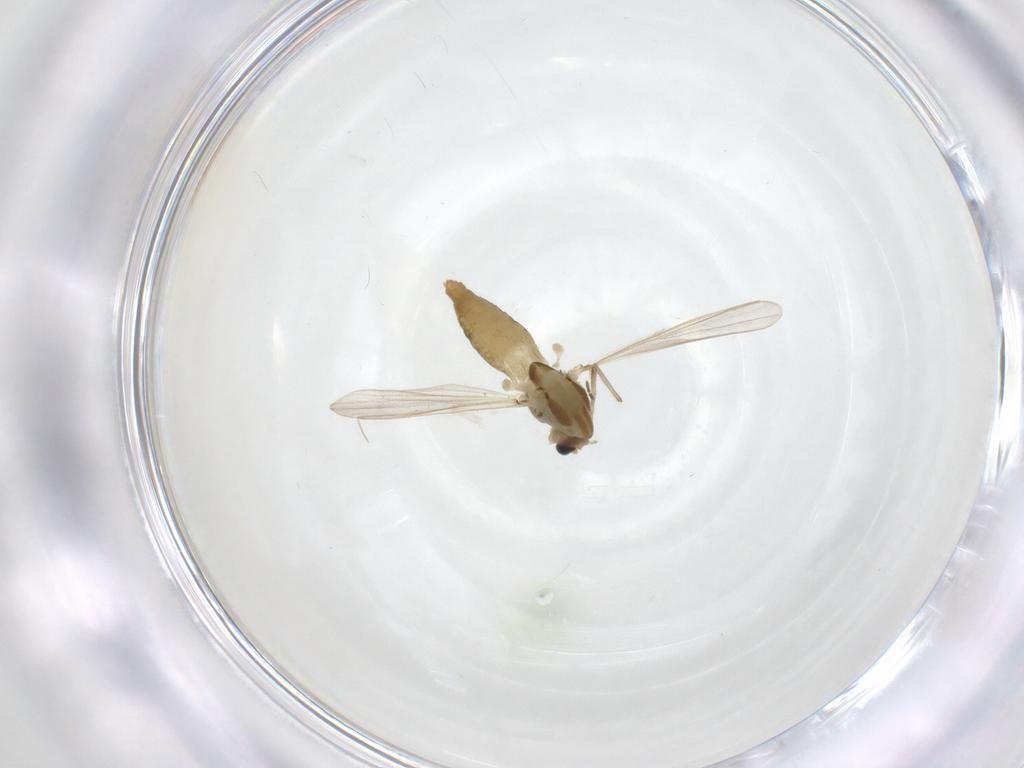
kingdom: Animalia
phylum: Arthropoda
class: Insecta
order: Diptera
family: Chironomidae
